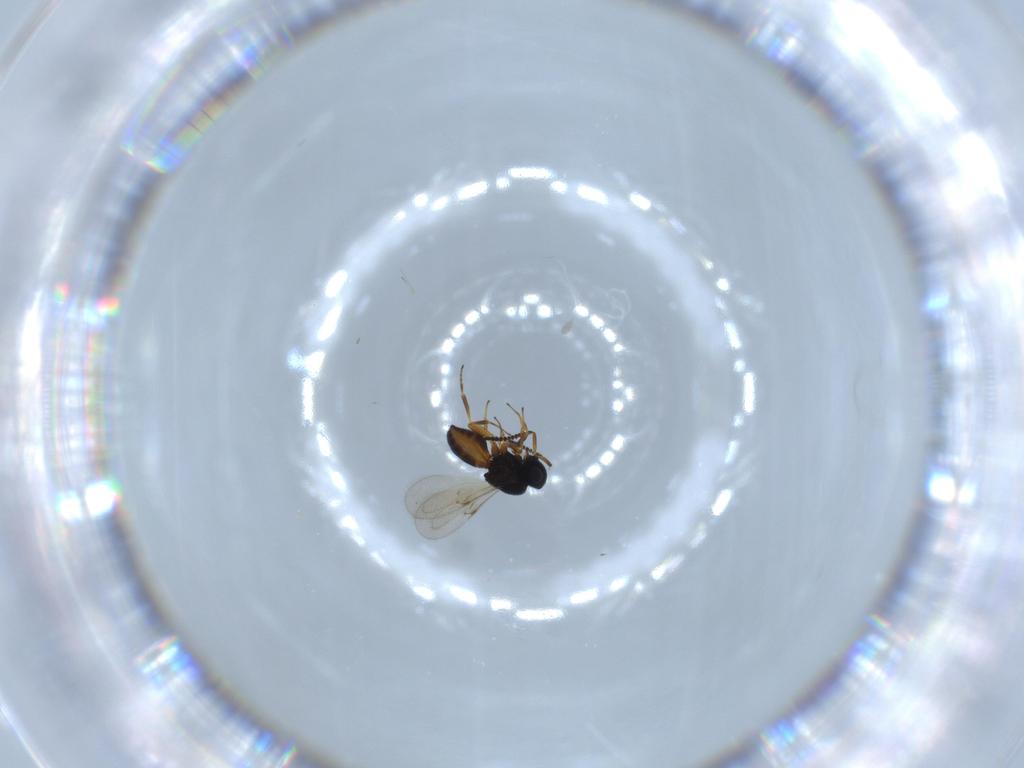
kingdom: Animalia
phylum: Arthropoda
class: Insecta
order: Hymenoptera
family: Scelionidae
